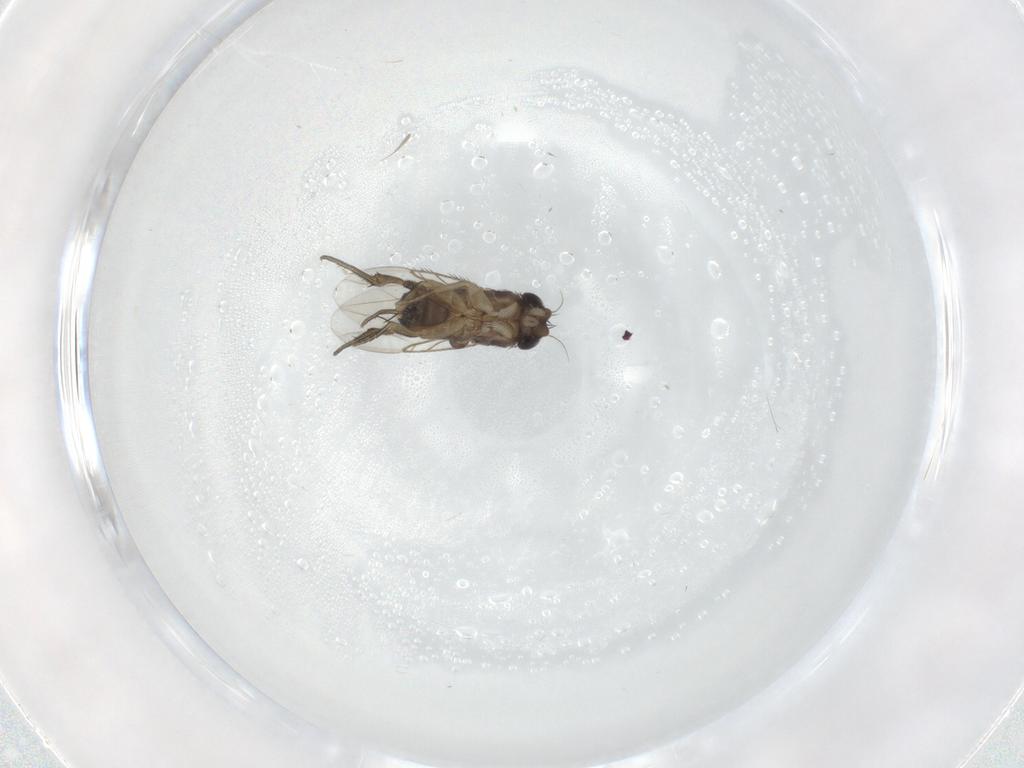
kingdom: Animalia
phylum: Arthropoda
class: Insecta
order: Diptera
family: Phoridae
